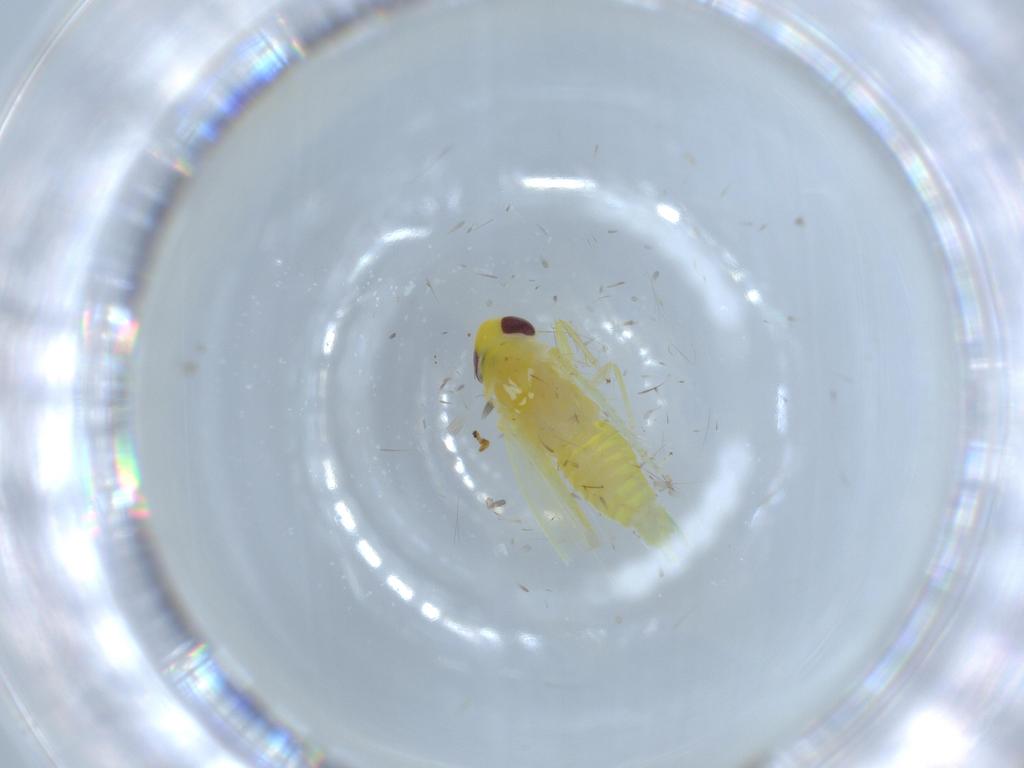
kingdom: Animalia
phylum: Arthropoda
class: Insecta
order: Hemiptera
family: Cicadellidae
